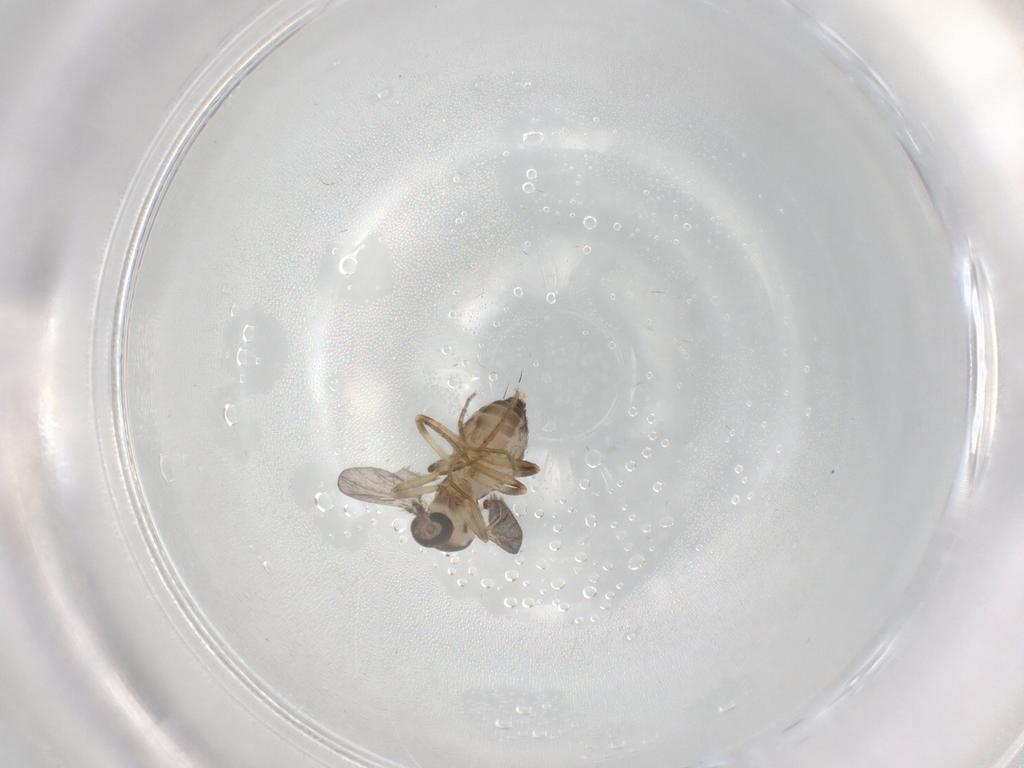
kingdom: Animalia
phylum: Arthropoda
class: Insecta
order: Diptera
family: Ceratopogonidae
